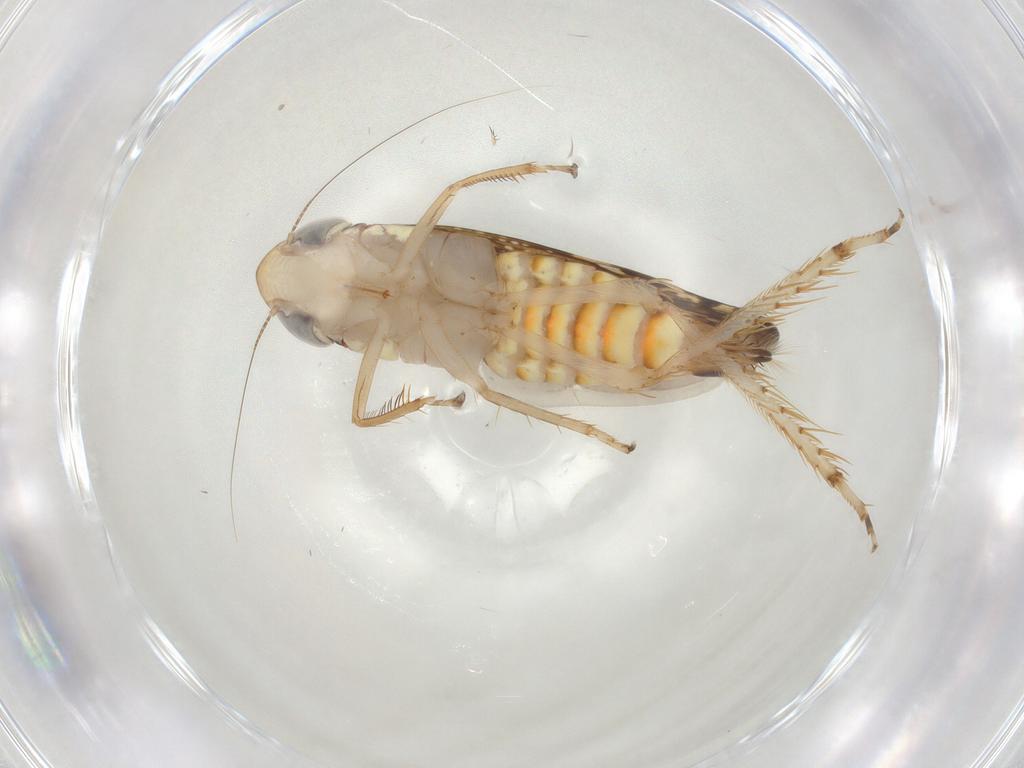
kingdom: Animalia
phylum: Arthropoda
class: Insecta
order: Hemiptera
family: Cicadellidae
